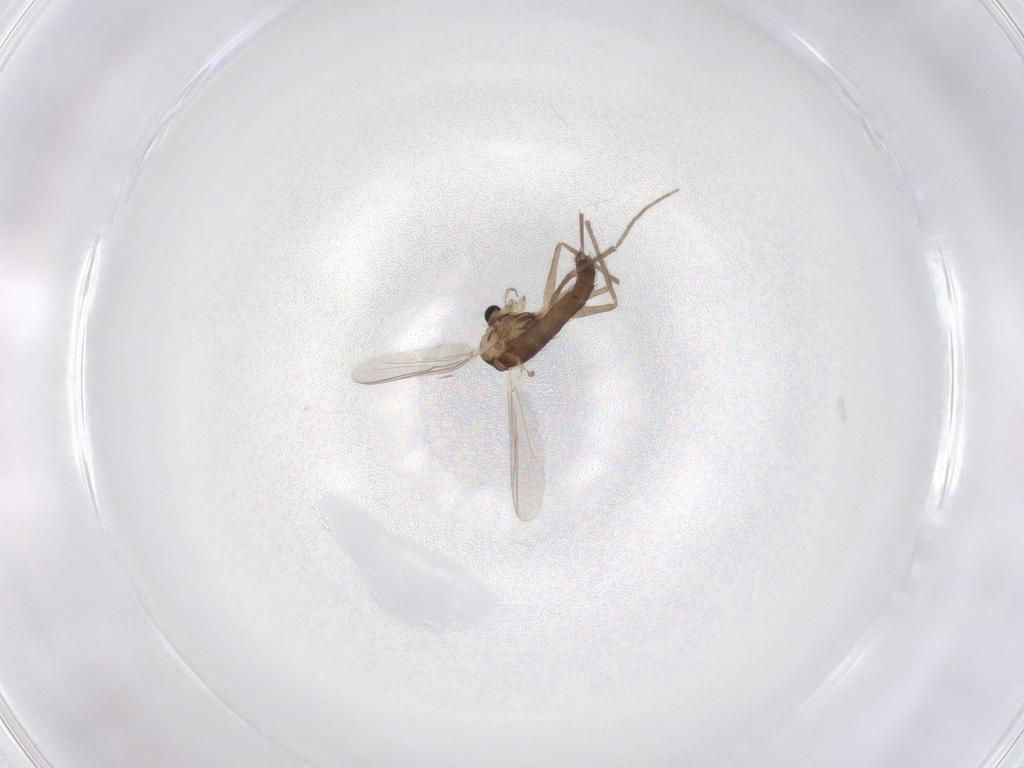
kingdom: Animalia
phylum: Arthropoda
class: Insecta
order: Diptera
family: Chironomidae
